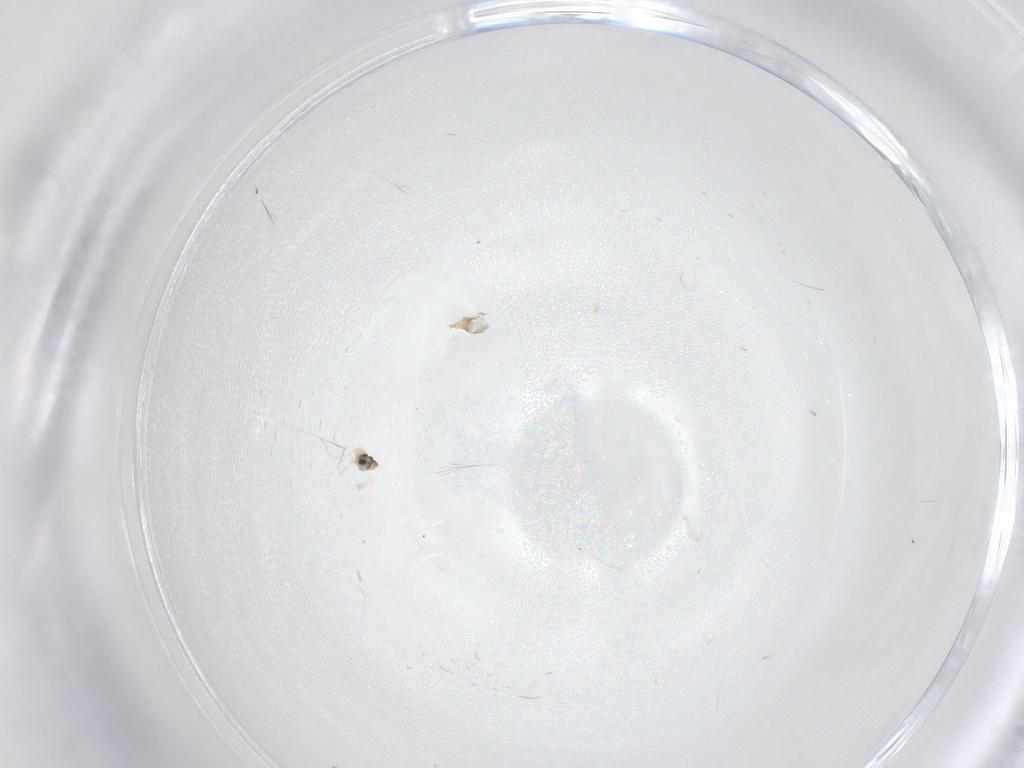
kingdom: Animalia
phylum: Arthropoda
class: Insecta
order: Diptera
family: Cecidomyiidae
